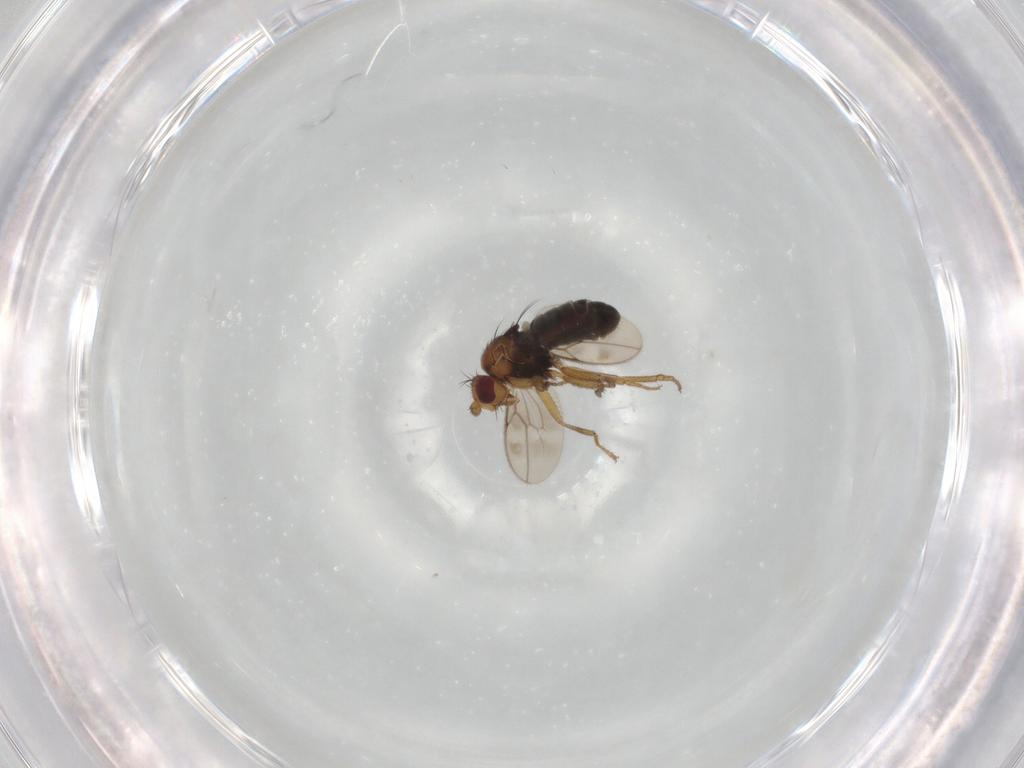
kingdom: Animalia
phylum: Arthropoda
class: Insecta
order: Diptera
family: Sphaeroceridae
